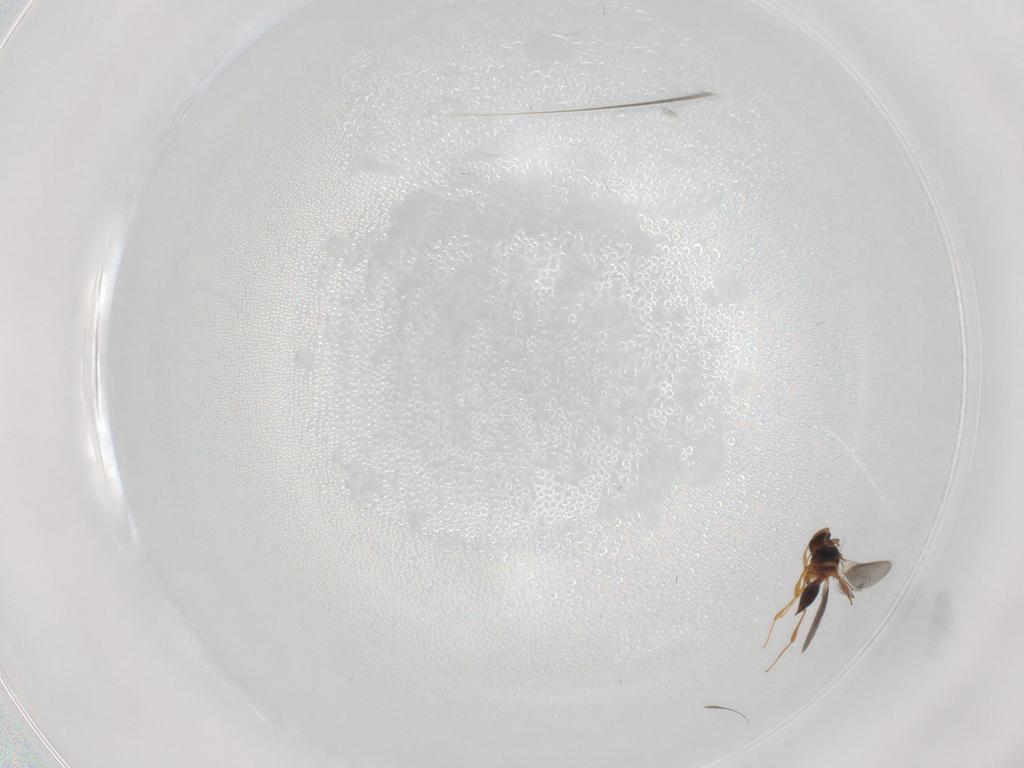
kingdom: Animalia
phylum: Arthropoda
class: Insecta
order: Hymenoptera
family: Platygastridae
